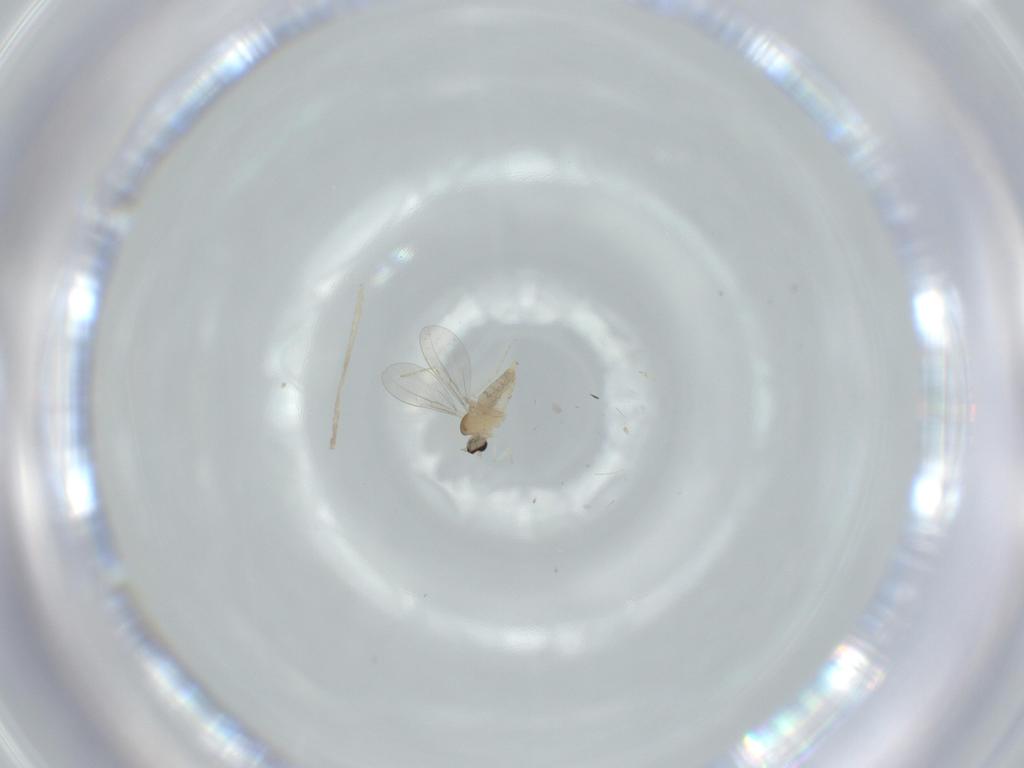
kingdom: Animalia
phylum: Arthropoda
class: Insecta
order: Diptera
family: Cecidomyiidae
